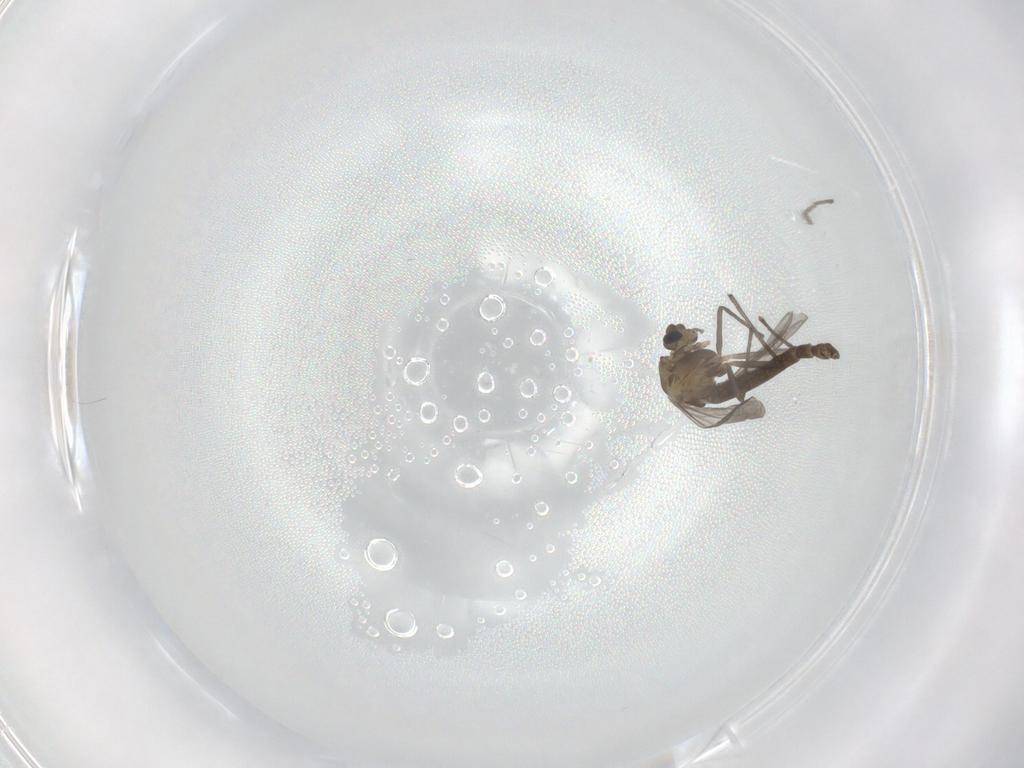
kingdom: Animalia
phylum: Arthropoda
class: Insecta
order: Diptera
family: Chironomidae
